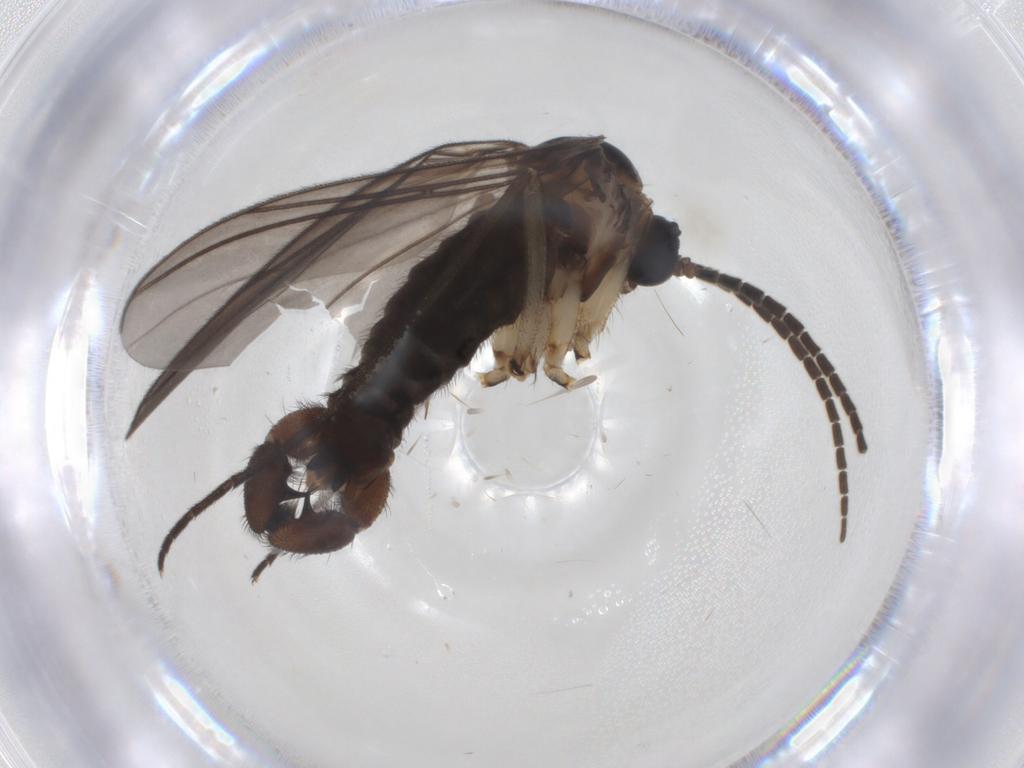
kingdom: Animalia
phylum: Arthropoda
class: Insecta
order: Diptera
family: Sciaridae
